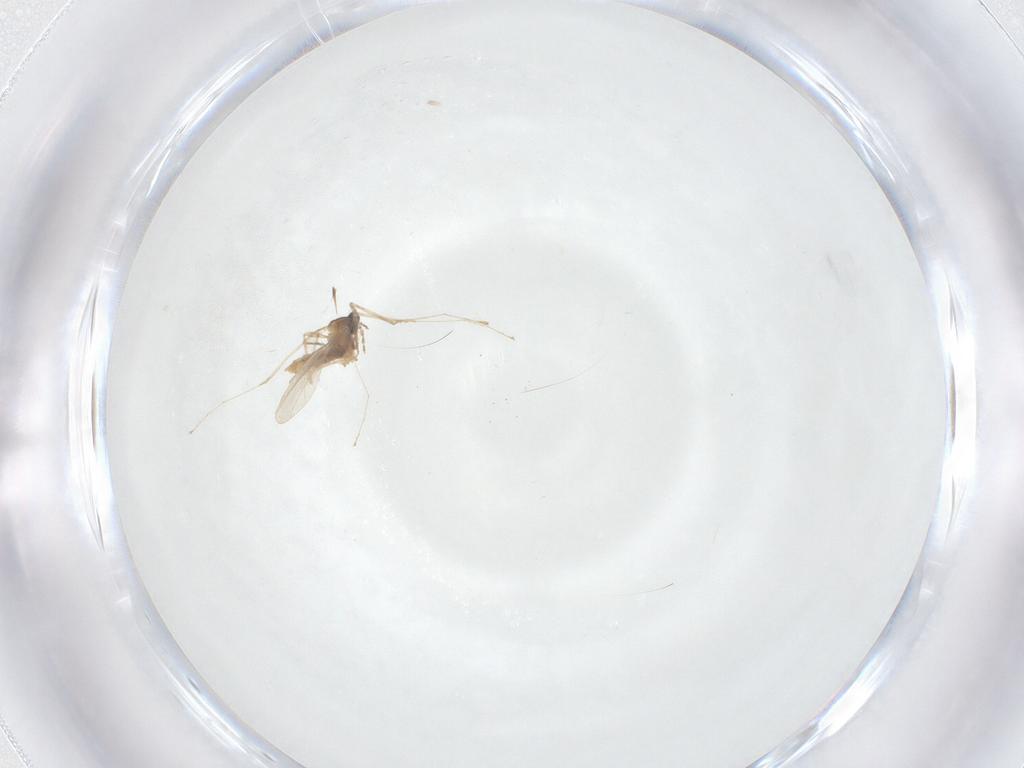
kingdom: Animalia
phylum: Arthropoda
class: Insecta
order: Diptera
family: Cecidomyiidae
